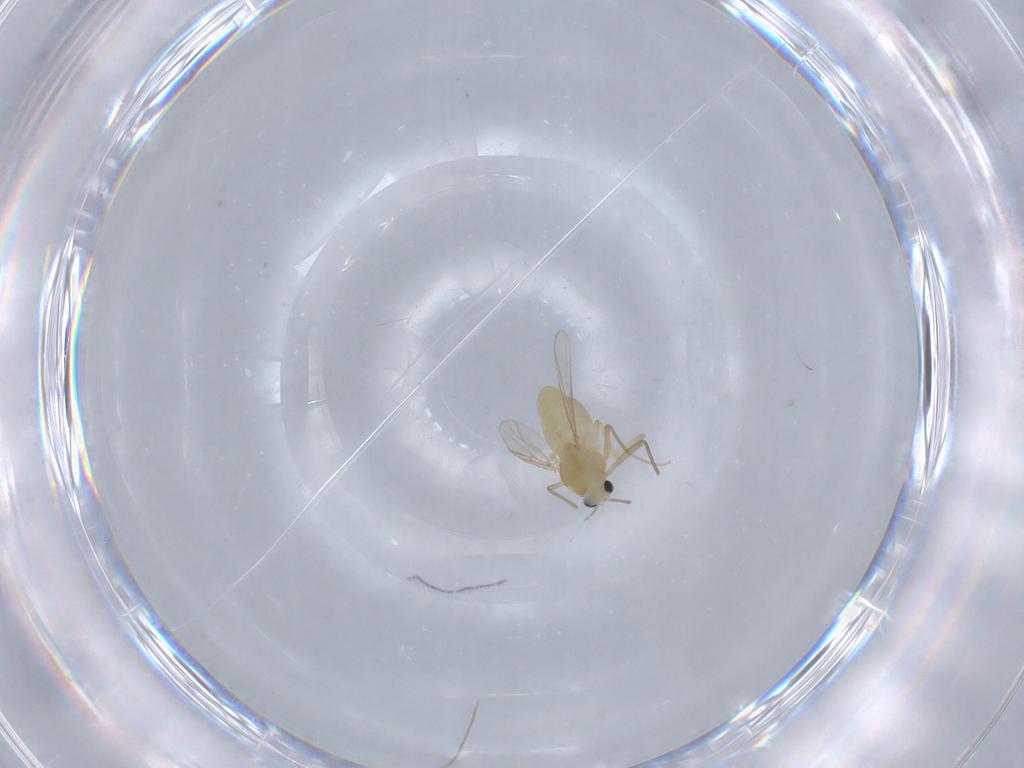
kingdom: Animalia
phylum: Arthropoda
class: Insecta
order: Diptera
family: Chironomidae
